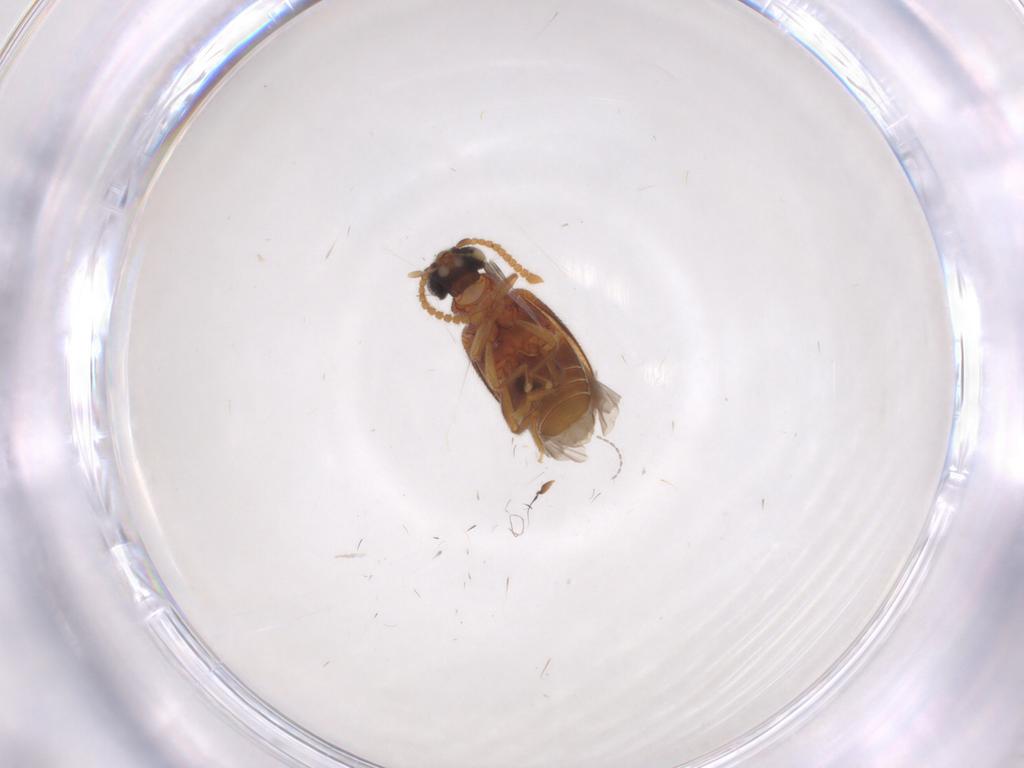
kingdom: Animalia
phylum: Arthropoda
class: Insecta
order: Coleoptera
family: Aderidae
